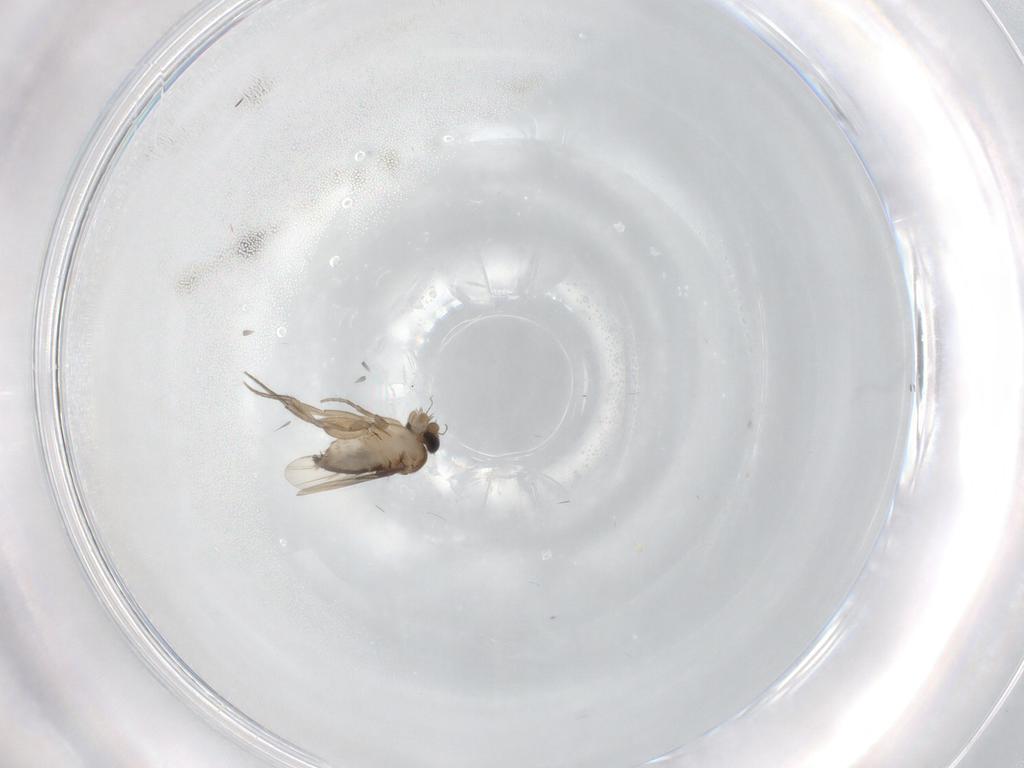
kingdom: Animalia
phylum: Arthropoda
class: Insecta
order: Diptera
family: Phoridae
